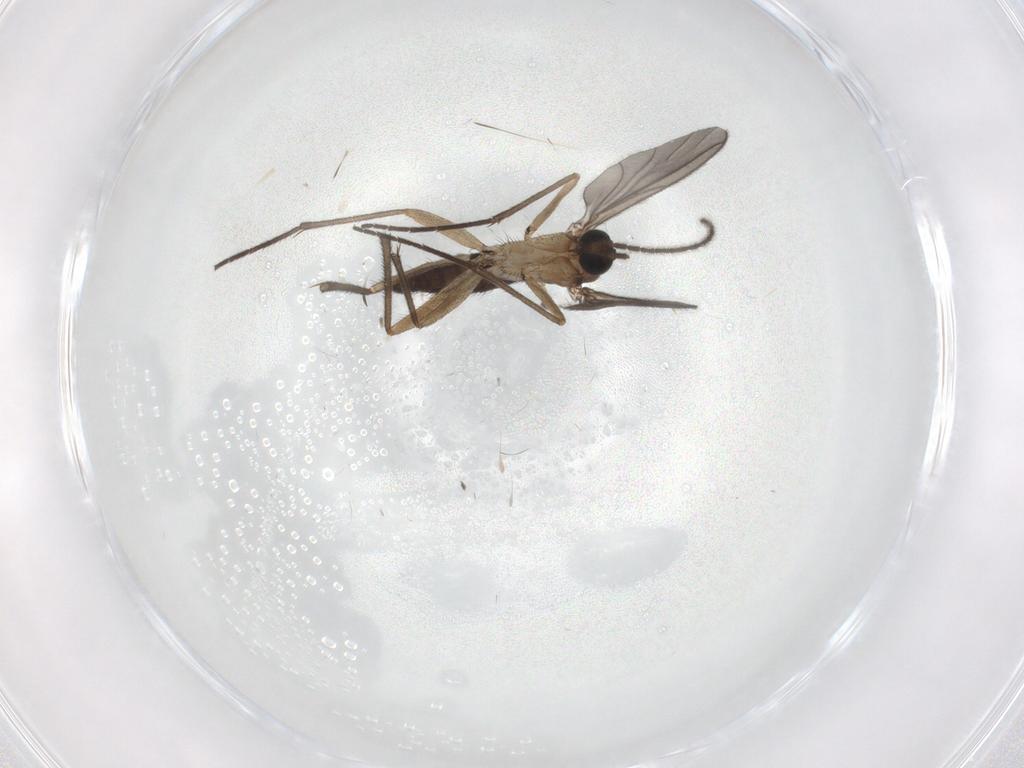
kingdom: Animalia
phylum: Arthropoda
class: Insecta
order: Diptera
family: Sciaridae
